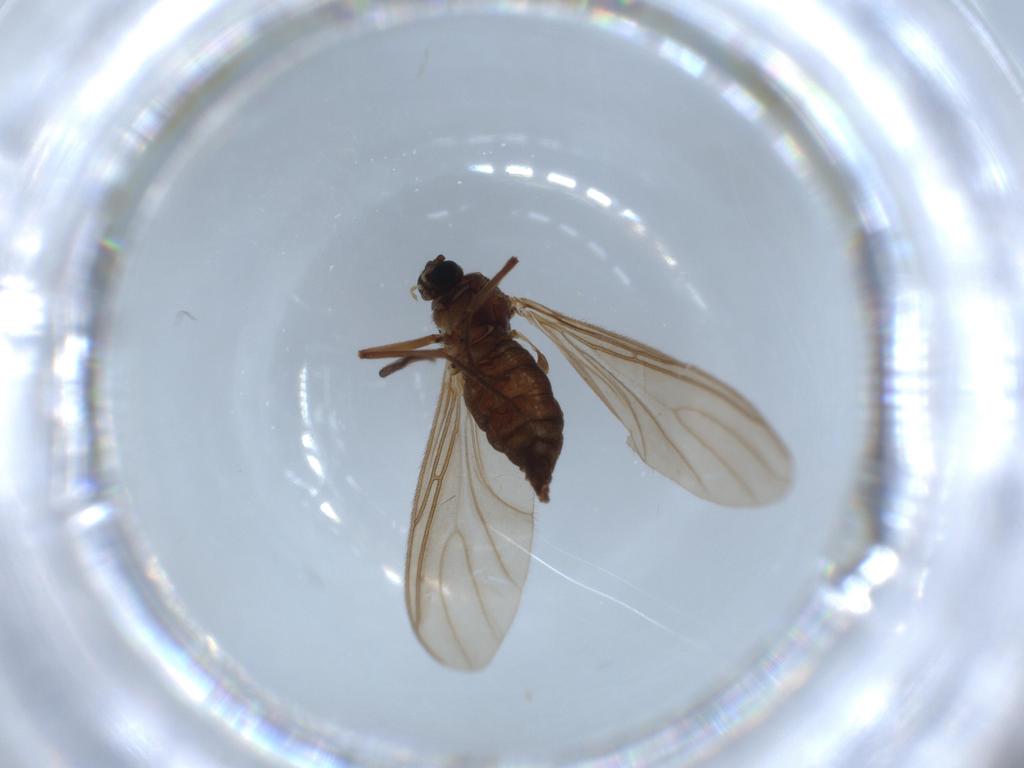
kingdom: Animalia
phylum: Arthropoda
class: Insecta
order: Diptera
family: Sciaridae
